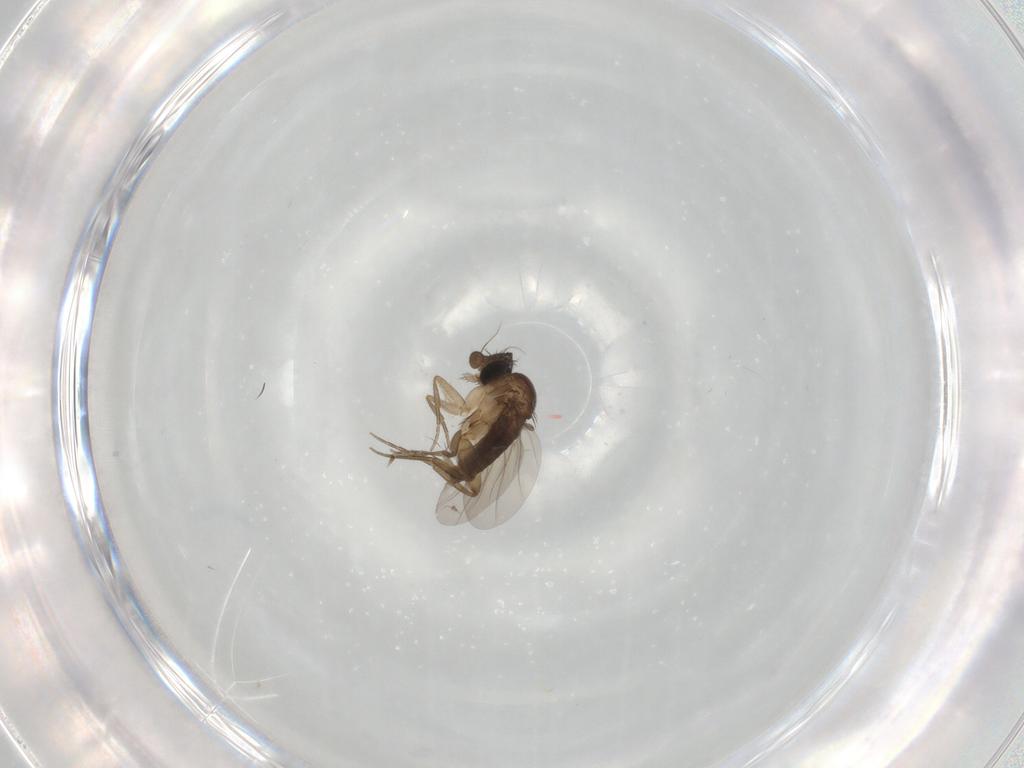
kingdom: Animalia
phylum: Arthropoda
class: Insecta
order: Diptera
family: Phoridae
